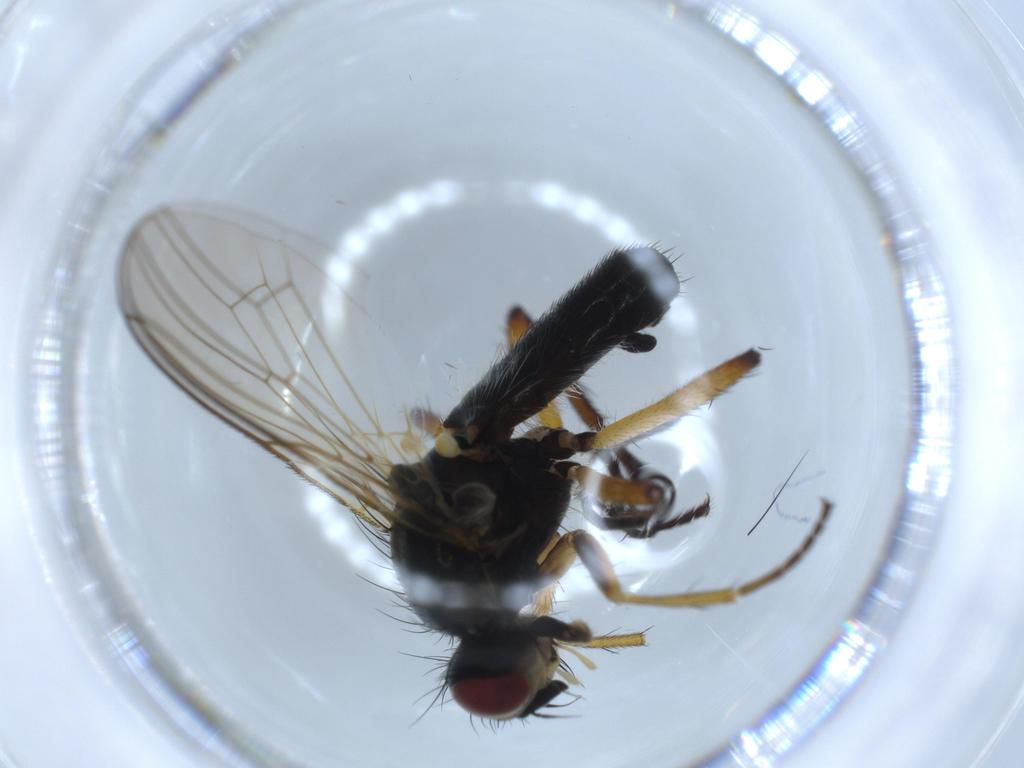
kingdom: Animalia
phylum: Arthropoda
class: Insecta
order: Diptera
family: Scathophagidae
